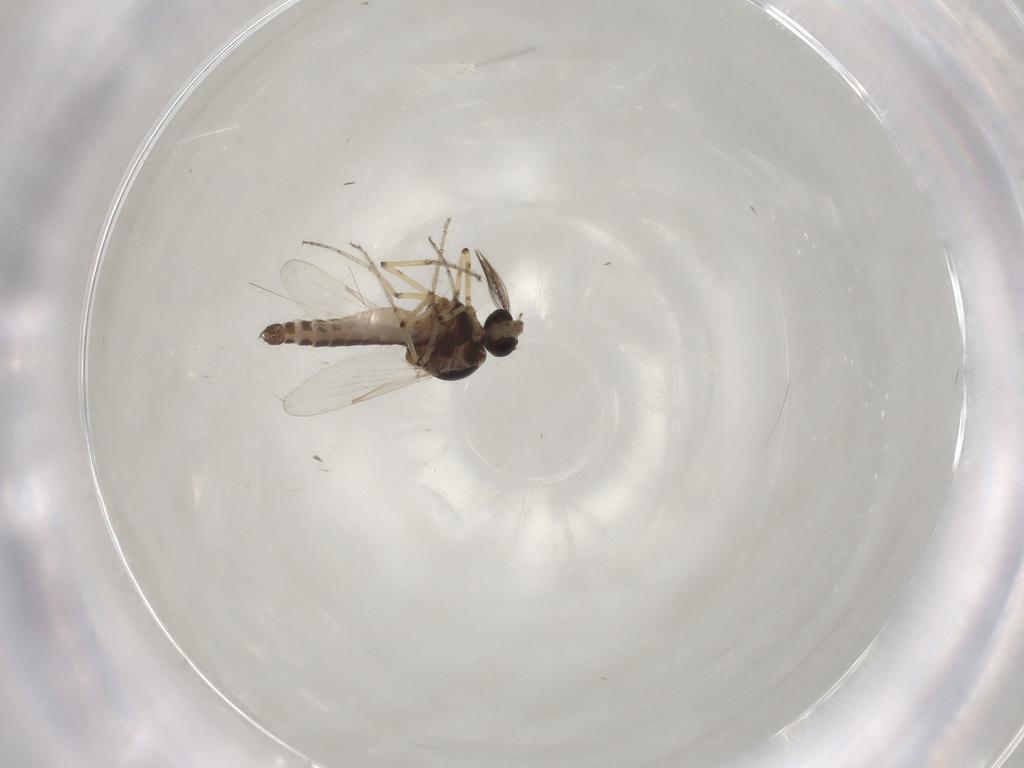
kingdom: Animalia
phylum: Arthropoda
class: Insecta
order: Diptera
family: Ceratopogonidae
